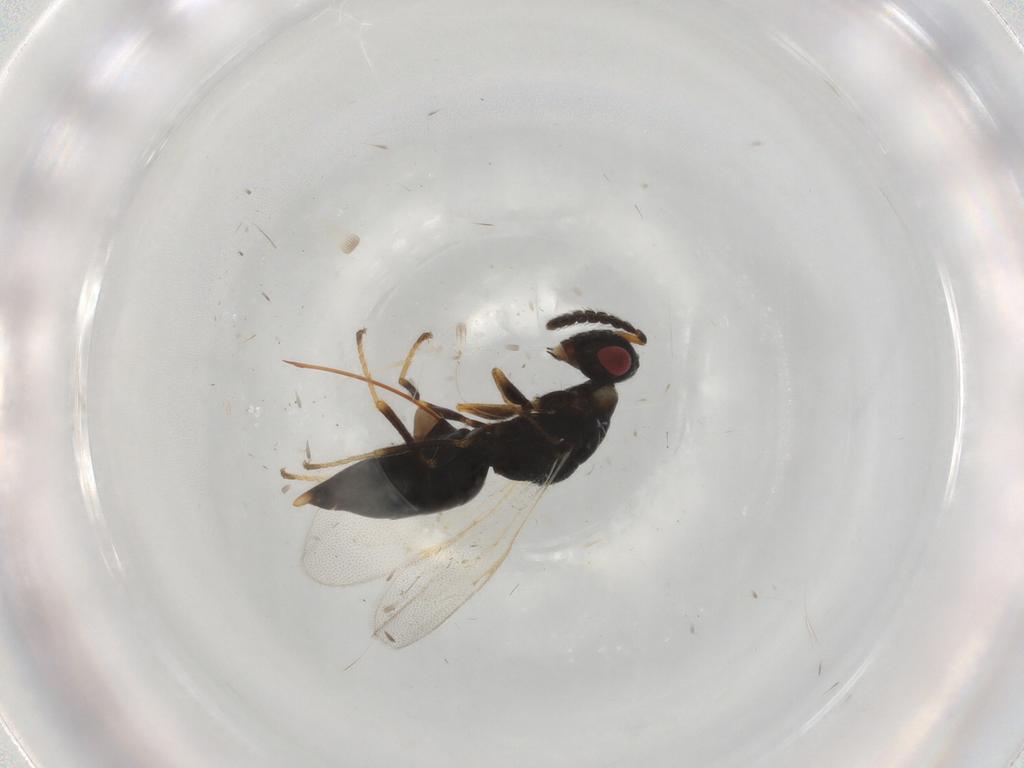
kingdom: Animalia
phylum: Arthropoda
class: Insecta
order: Hymenoptera
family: Eurytomidae
